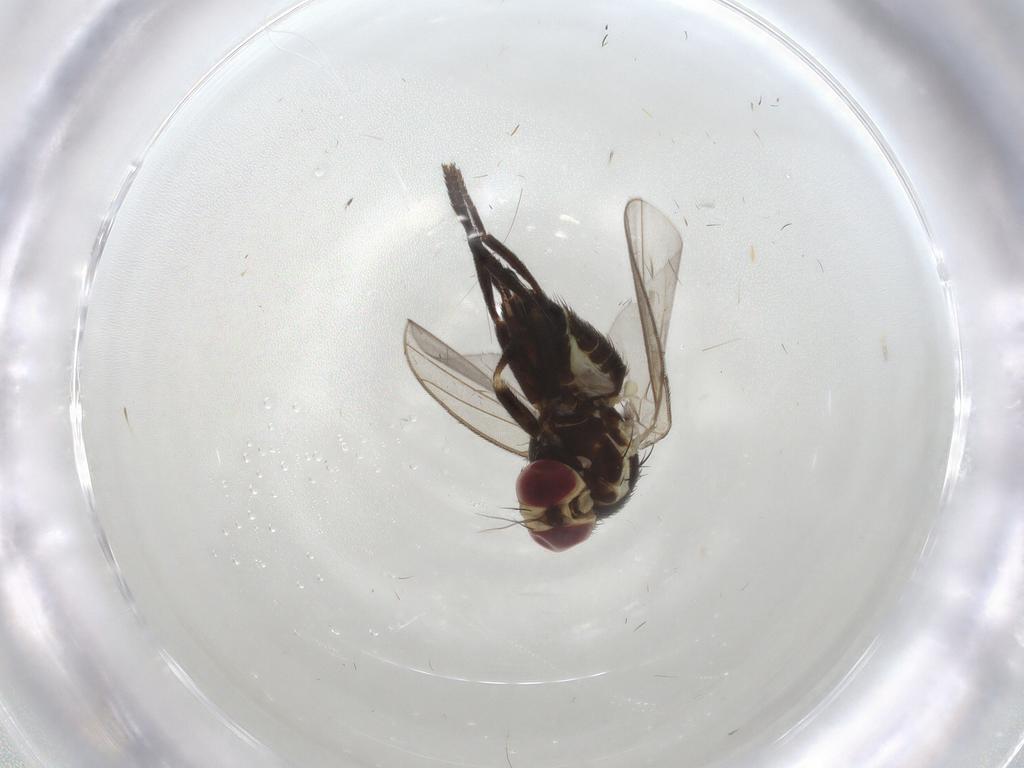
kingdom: Animalia
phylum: Arthropoda
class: Insecta
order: Diptera
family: Agromyzidae
